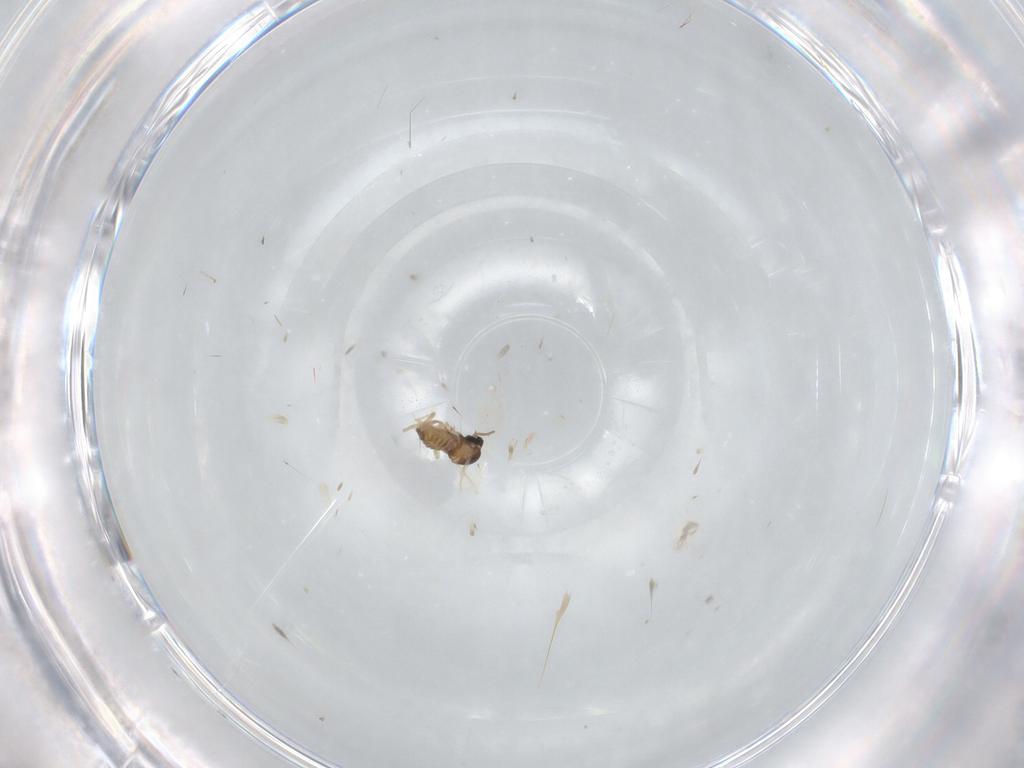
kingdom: Animalia
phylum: Arthropoda
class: Insecta
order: Diptera
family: Cecidomyiidae
